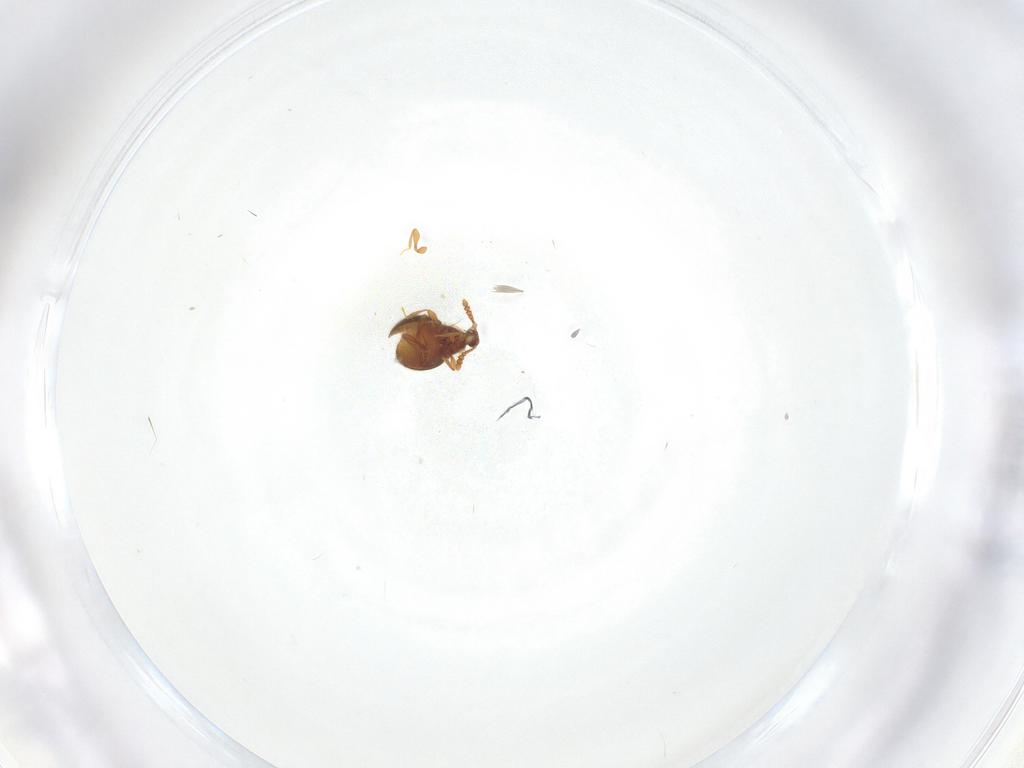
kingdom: Animalia
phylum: Arthropoda
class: Insecta
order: Coleoptera
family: Staphylinidae
